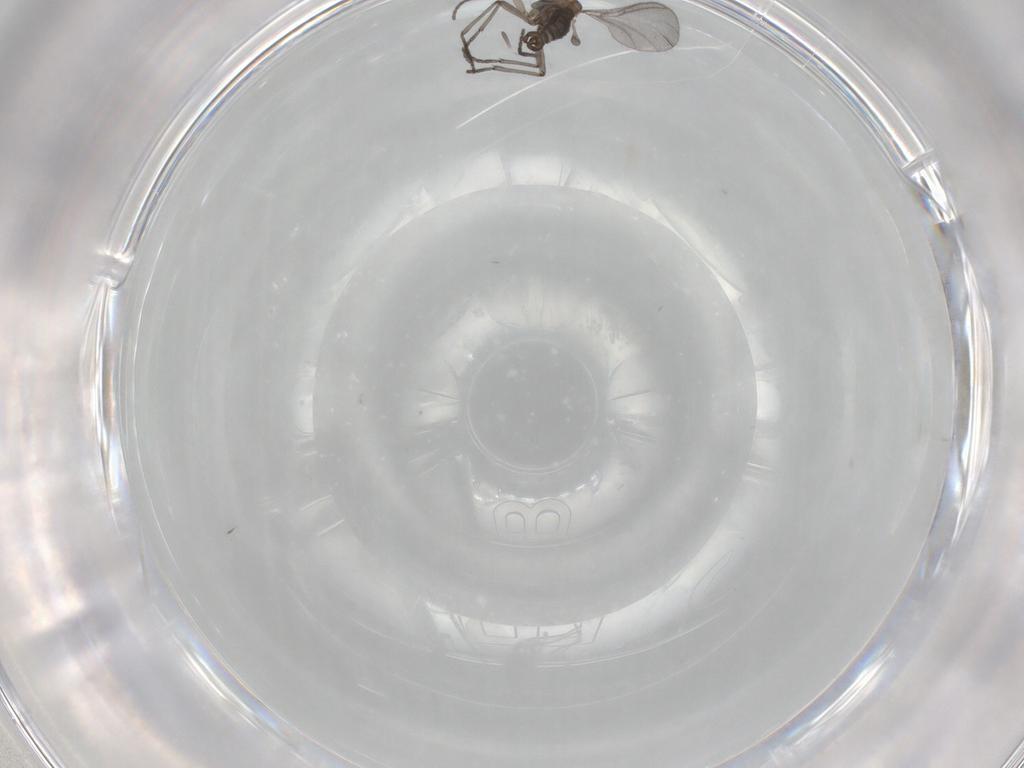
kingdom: Animalia
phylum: Arthropoda
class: Insecta
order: Diptera
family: Sciaridae
